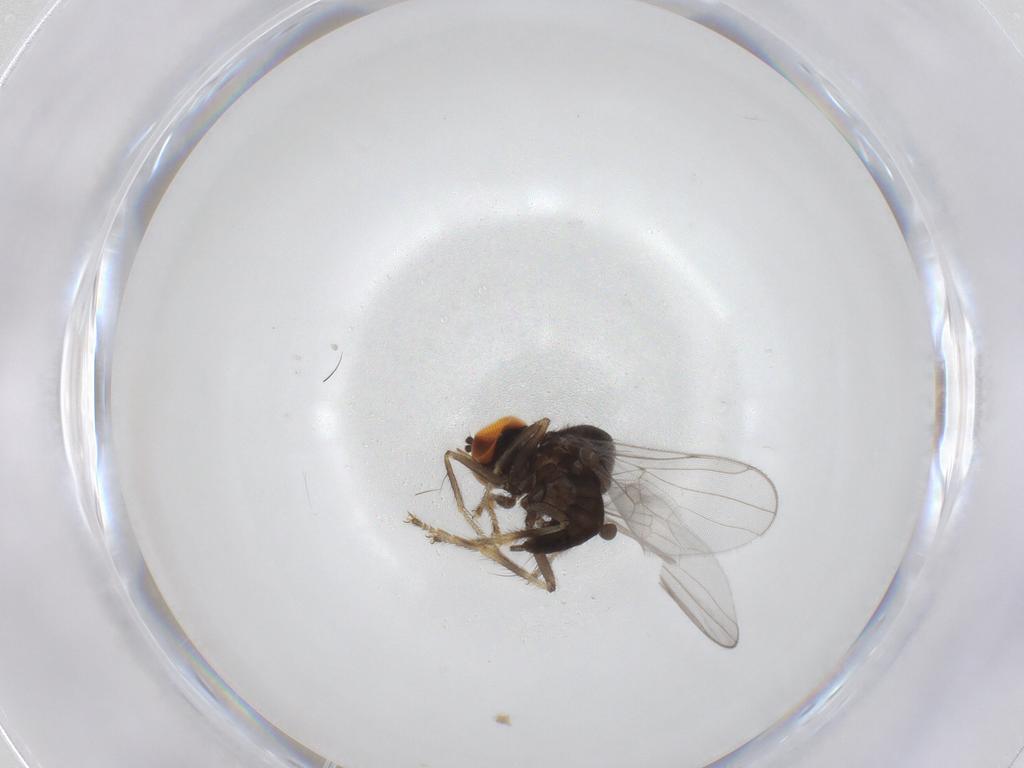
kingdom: Animalia
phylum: Arthropoda
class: Insecta
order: Diptera
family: Hybotidae
